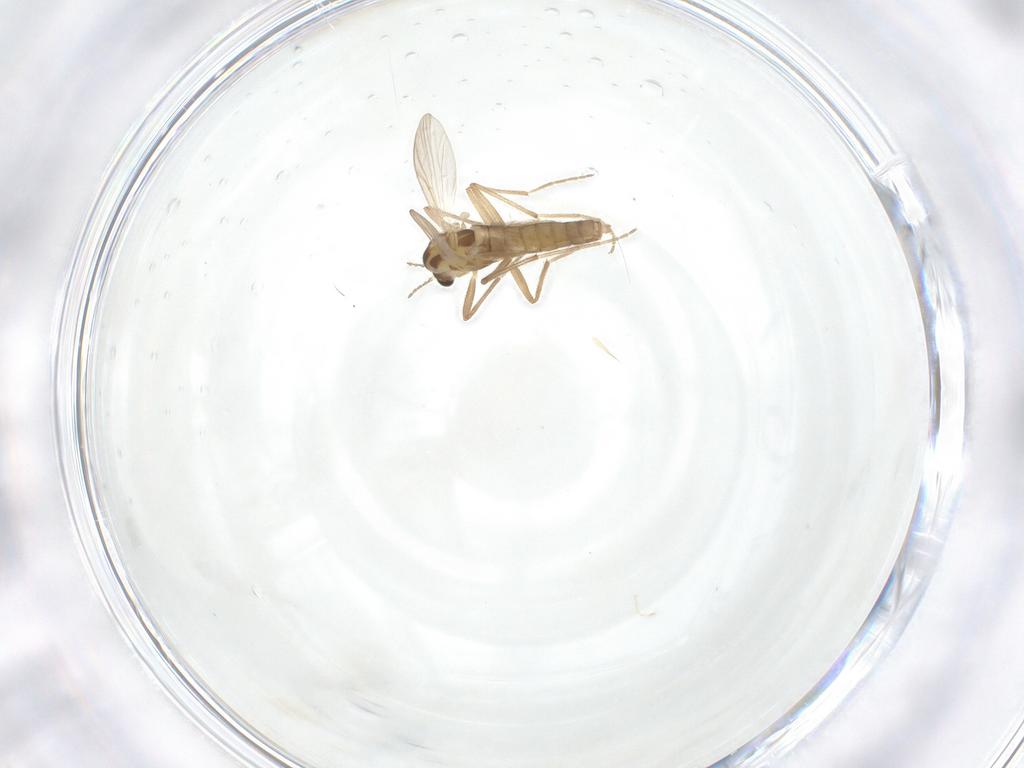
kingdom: Animalia
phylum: Arthropoda
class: Insecta
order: Diptera
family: Chironomidae
